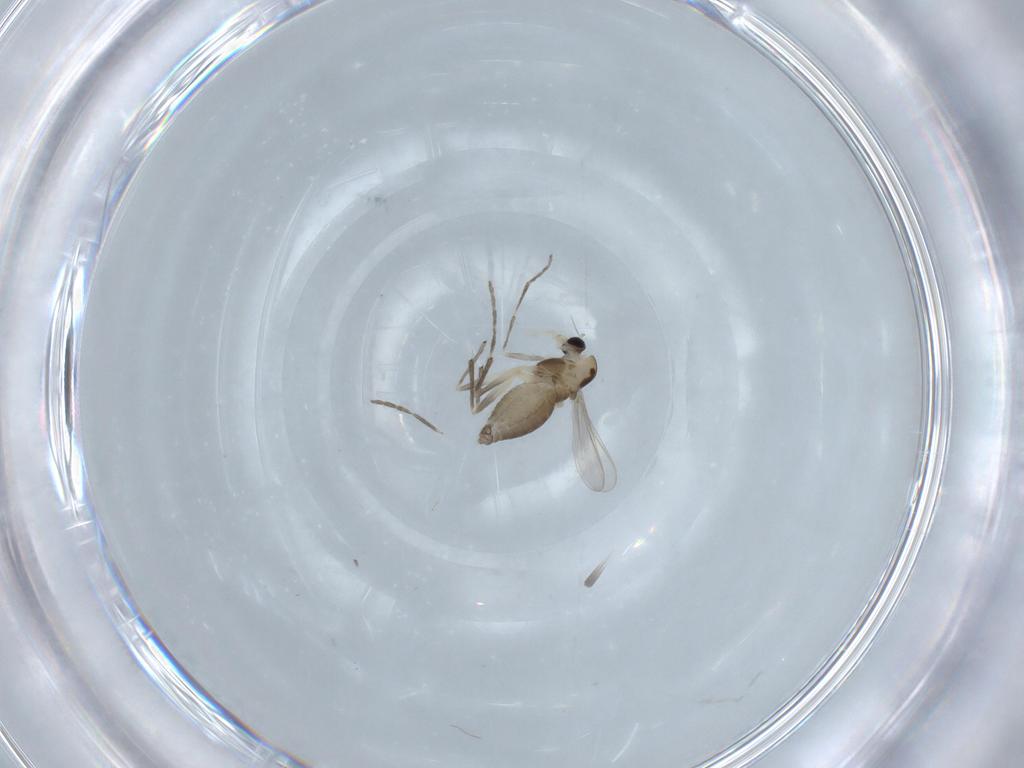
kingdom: Animalia
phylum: Arthropoda
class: Insecta
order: Diptera
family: Chironomidae
